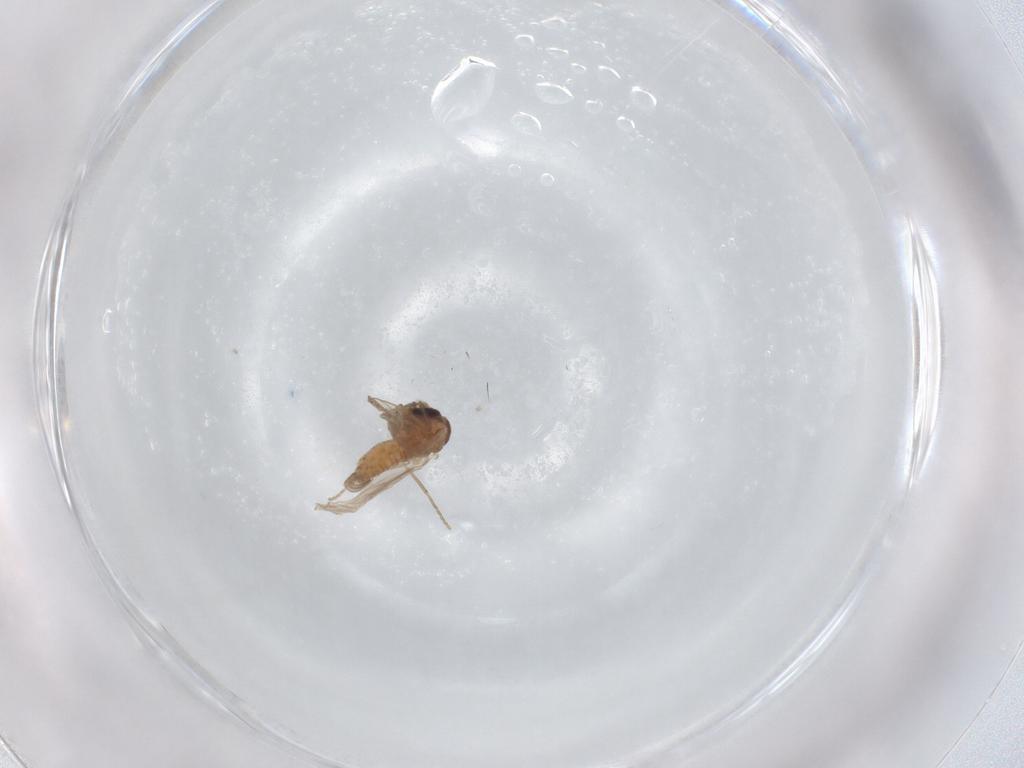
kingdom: Animalia
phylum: Arthropoda
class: Insecta
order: Diptera
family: Psychodidae
